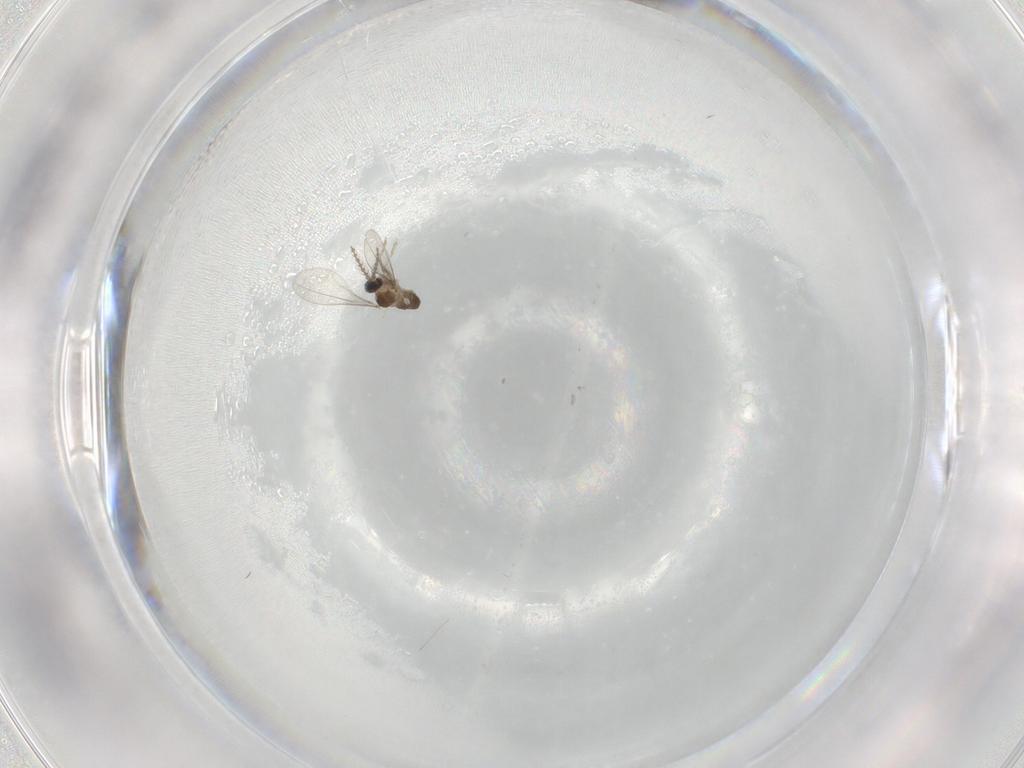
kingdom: Animalia
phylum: Arthropoda
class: Insecta
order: Diptera
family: Cecidomyiidae
